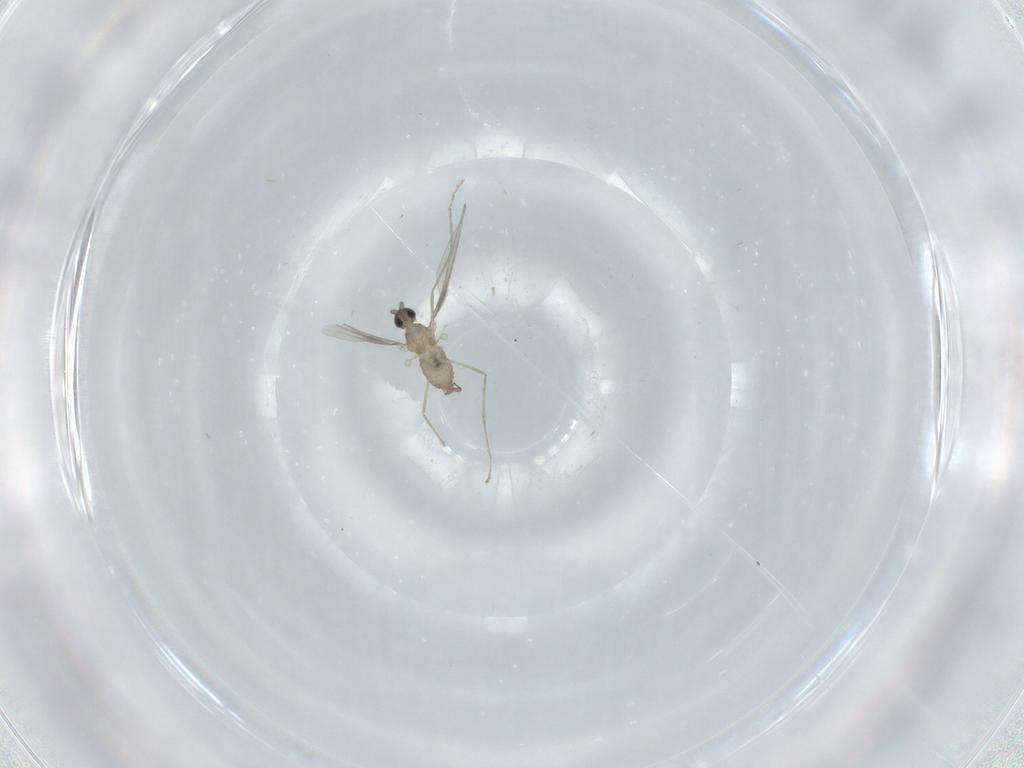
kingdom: Animalia
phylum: Arthropoda
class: Insecta
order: Diptera
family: Cecidomyiidae
